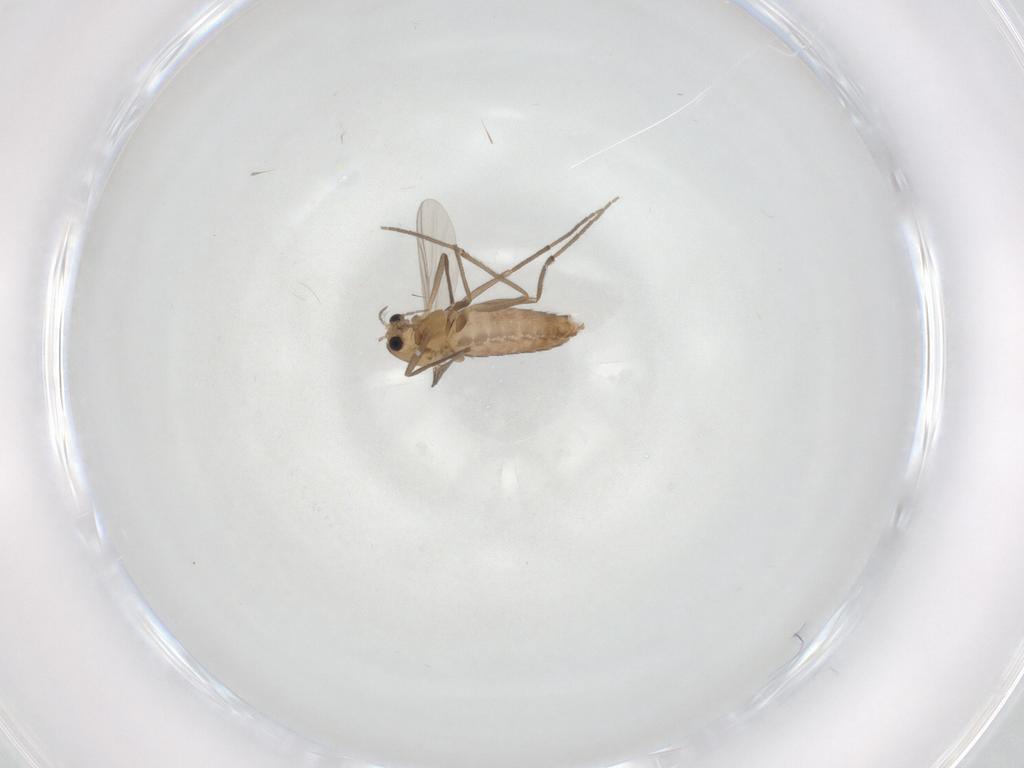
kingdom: Animalia
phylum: Arthropoda
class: Insecta
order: Diptera
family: Chironomidae
